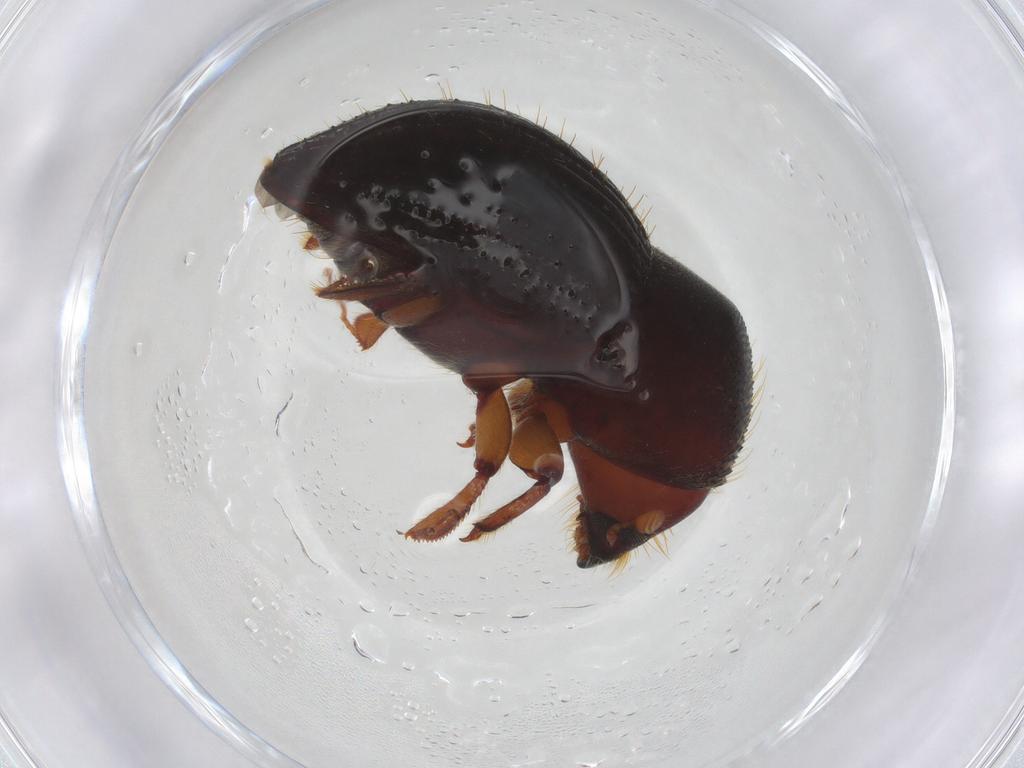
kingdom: Animalia
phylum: Arthropoda
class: Insecta
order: Coleoptera
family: Curculionidae
